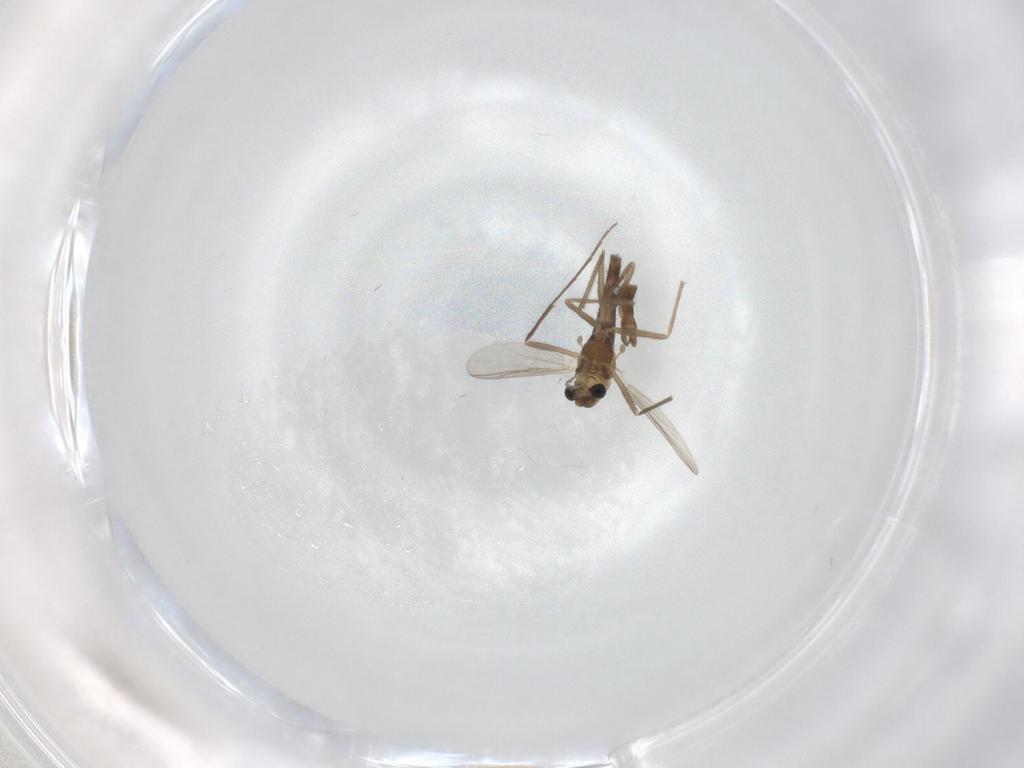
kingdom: Animalia
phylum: Arthropoda
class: Insecta
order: Diptera
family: Chironomidae
